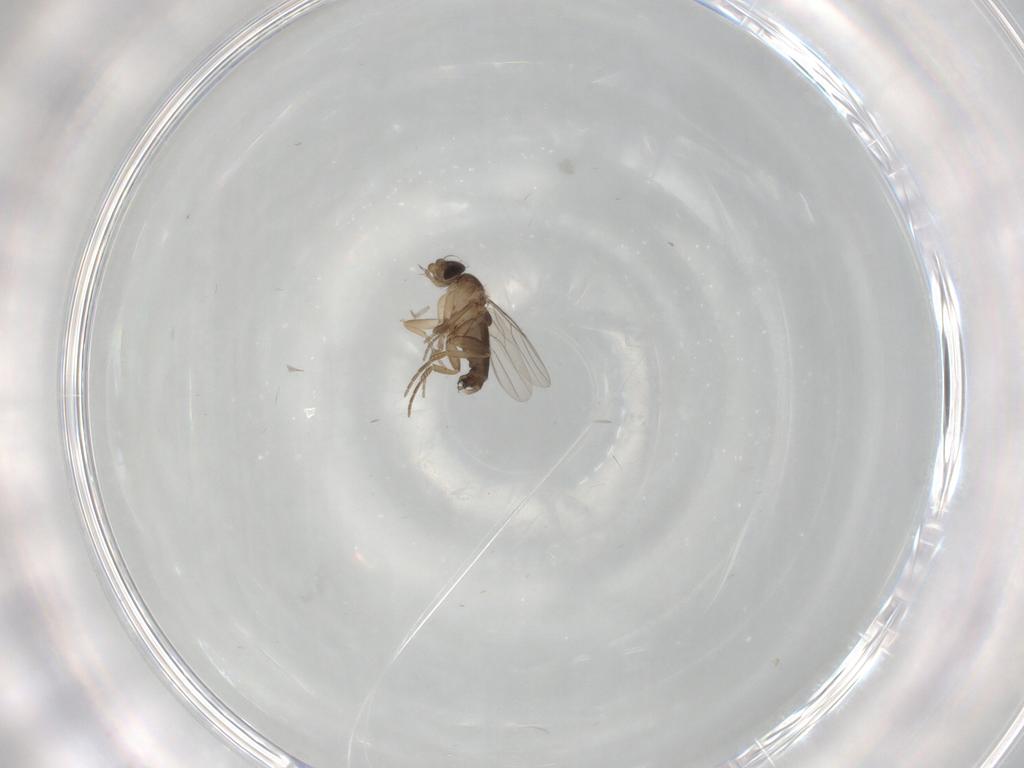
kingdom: Animalia
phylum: Arthropoda
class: Insecta
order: Diptera
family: Phoridae
